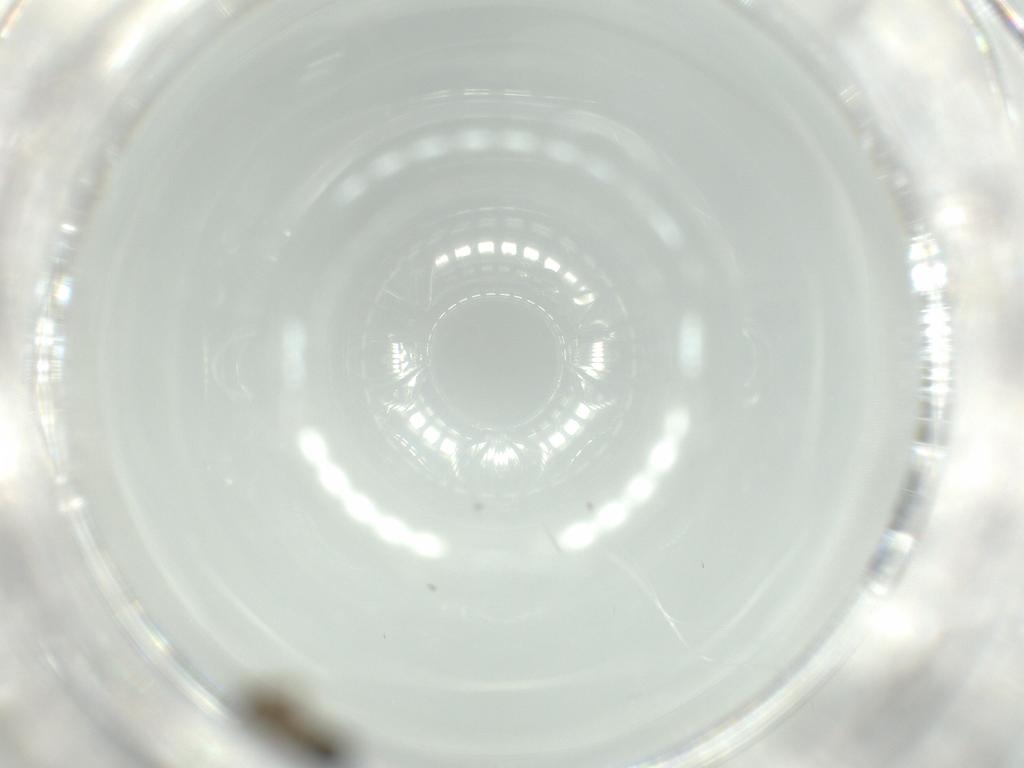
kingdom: Animalia
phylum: Arthropoda
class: Insecta
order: Diptera
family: Phoridae
